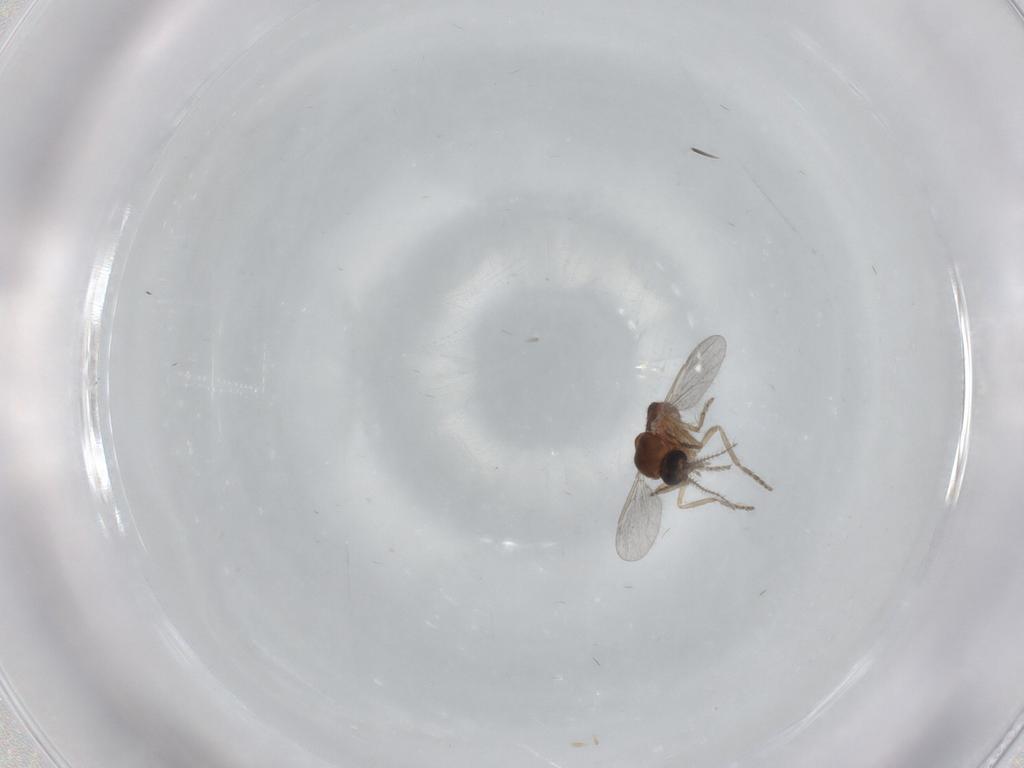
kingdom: Animalia
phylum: Arthropoda
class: Insecta
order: Diptera
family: Ceratopogonidae
